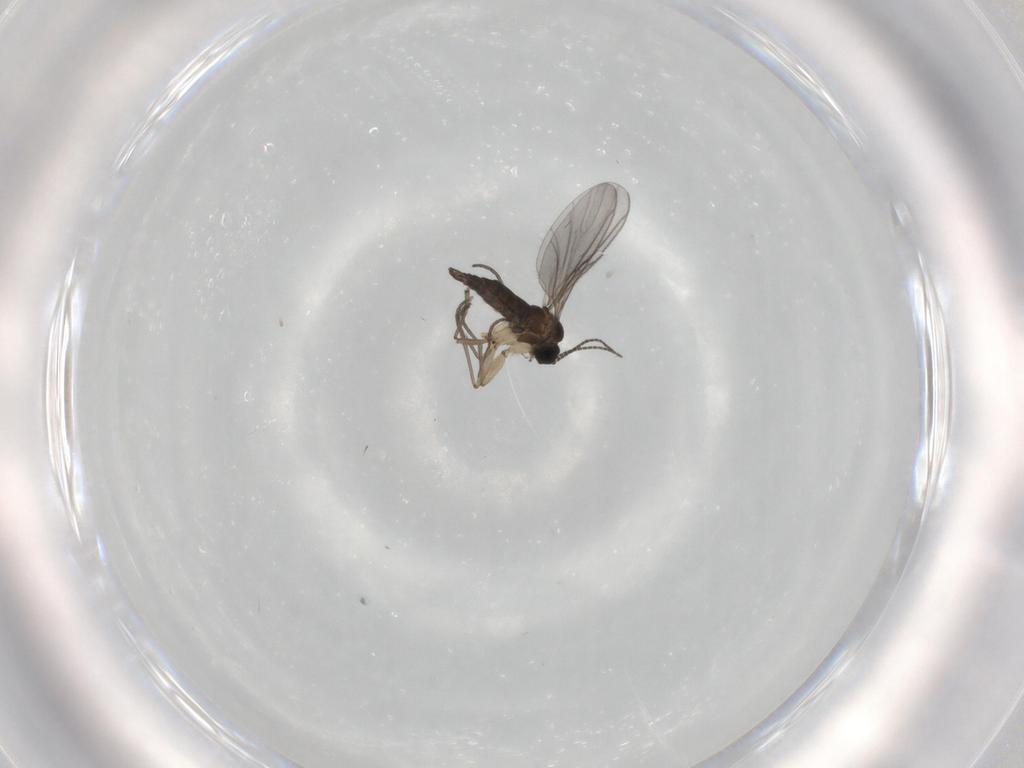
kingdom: Animalia
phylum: Arthropoda
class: Insecta
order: Diptera
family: Sciaridae
